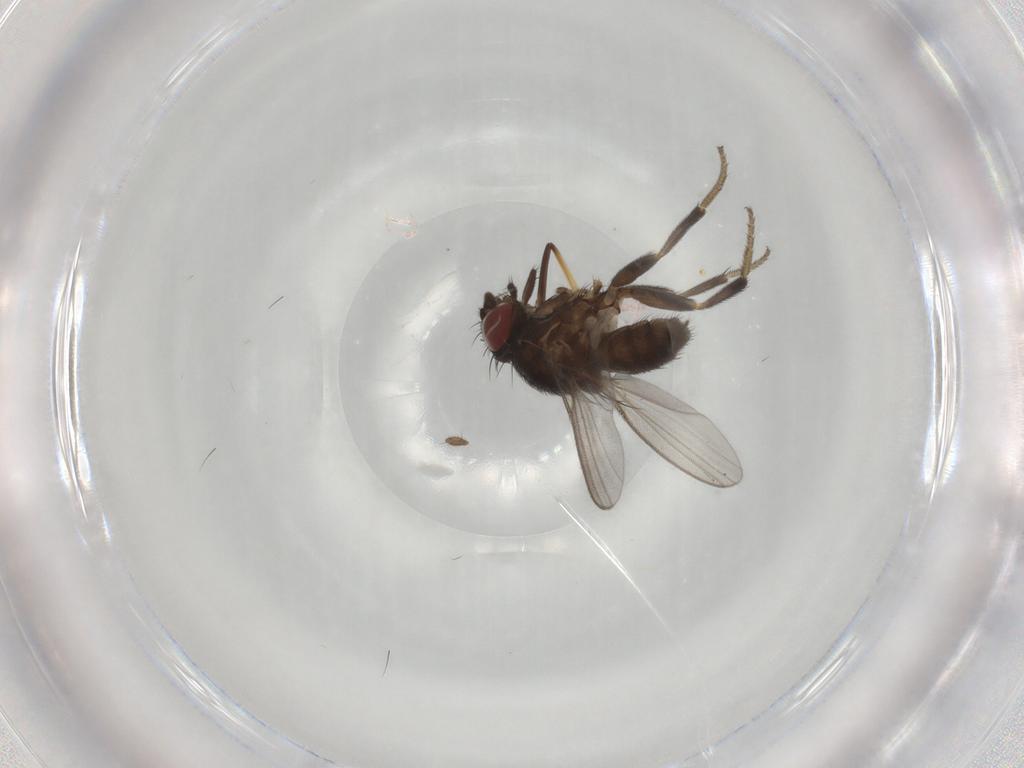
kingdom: Animalia
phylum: Arthropoda
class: Insecta
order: Diptera
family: Milichiidae
